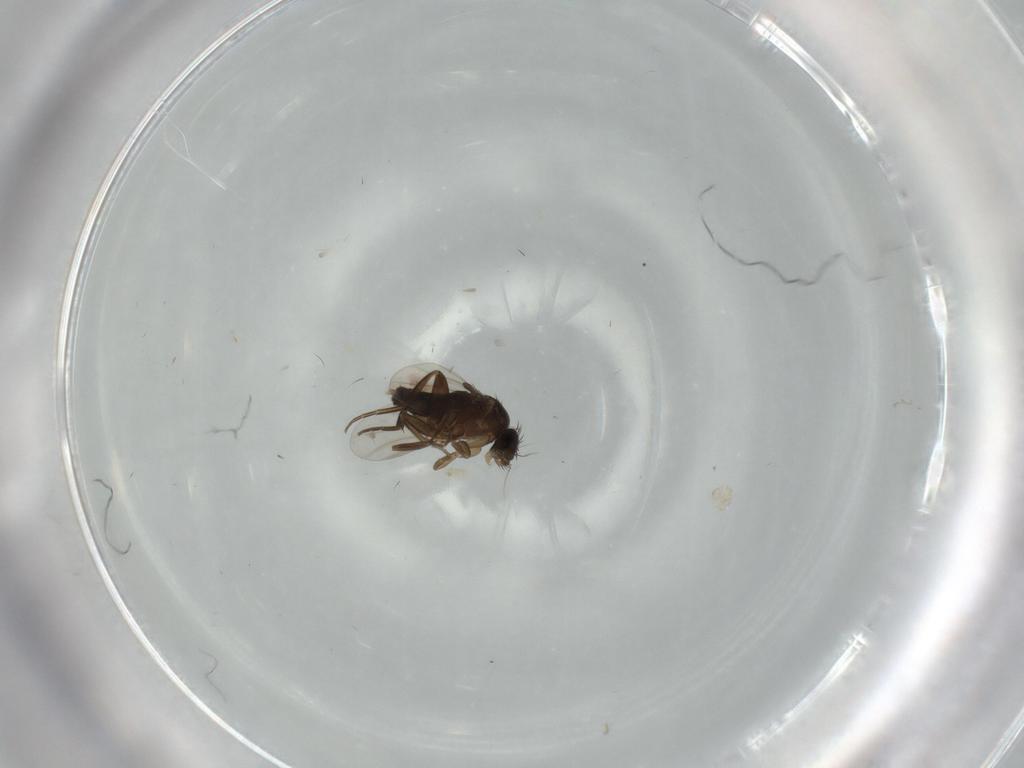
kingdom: Animalia
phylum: Arthropoda
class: Insecta
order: Diptera
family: Phoridae
